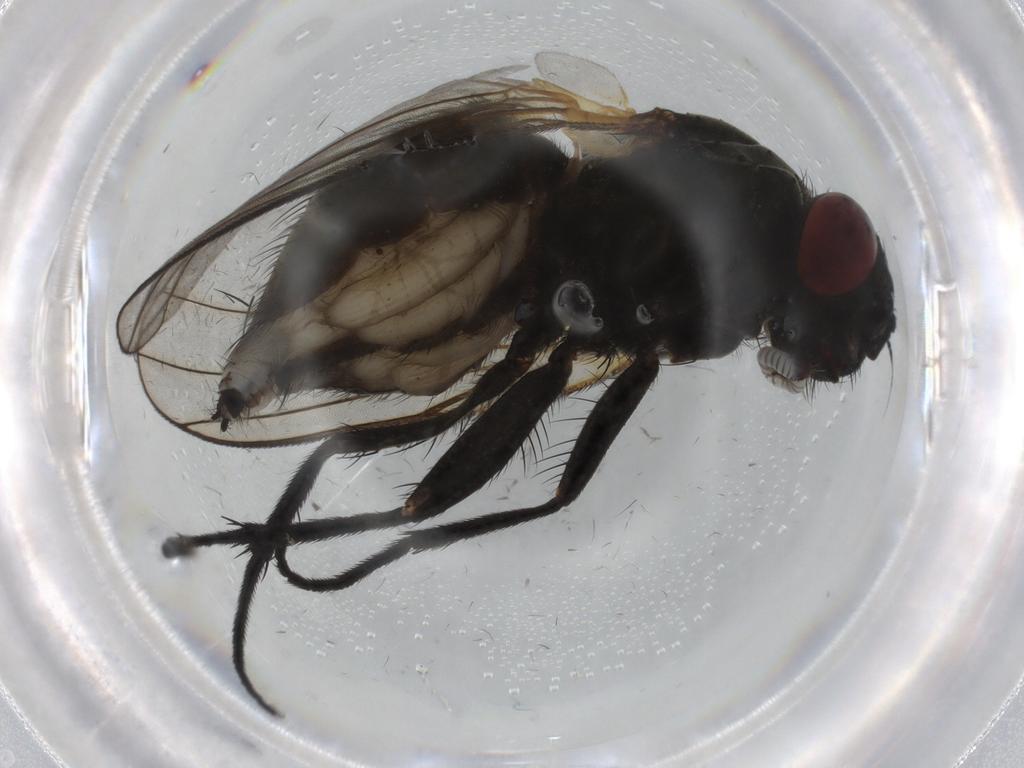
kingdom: Animalia
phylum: Arthropoda
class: Insecta
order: Diptera
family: Muscidae
